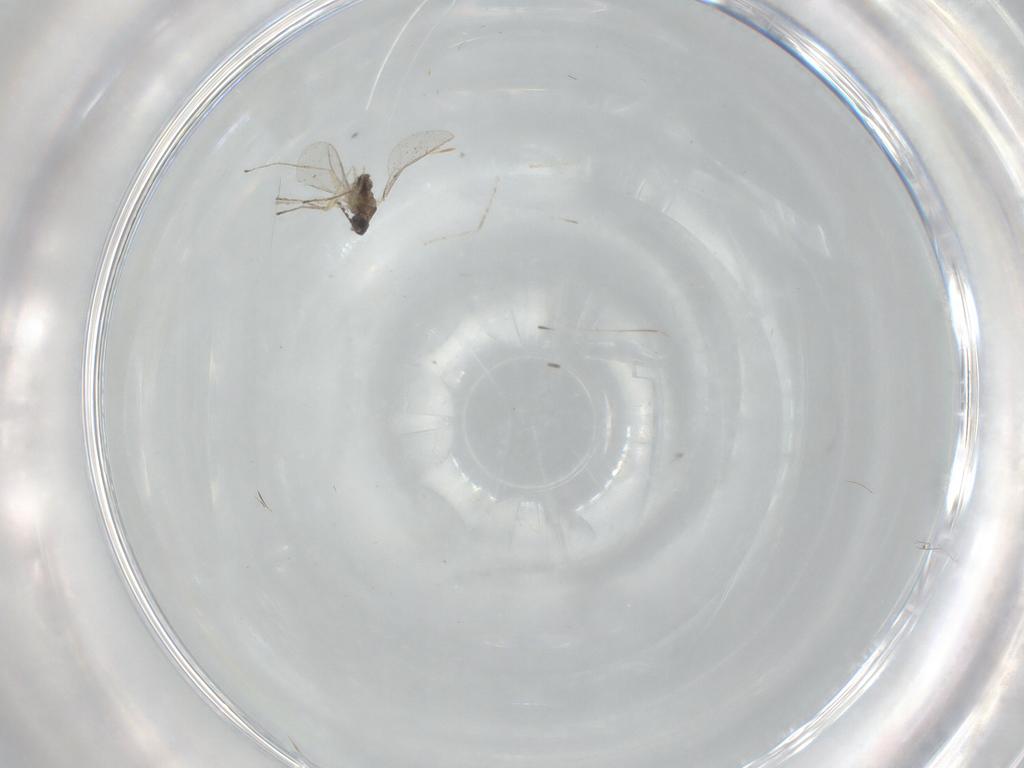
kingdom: Animalia
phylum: Arthropoda
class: Insecta
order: Diptera
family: Cecidomyiidae
